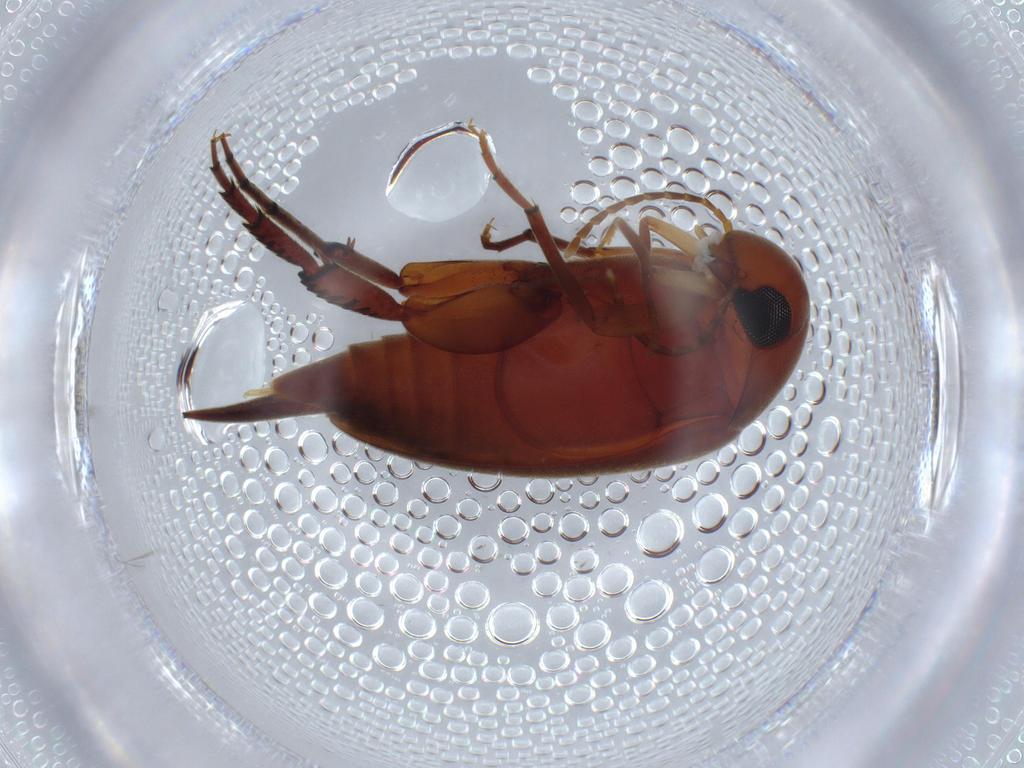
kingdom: Animalia
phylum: Arthropoda
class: Insecta
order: Coleoptera
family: Mordellidae
